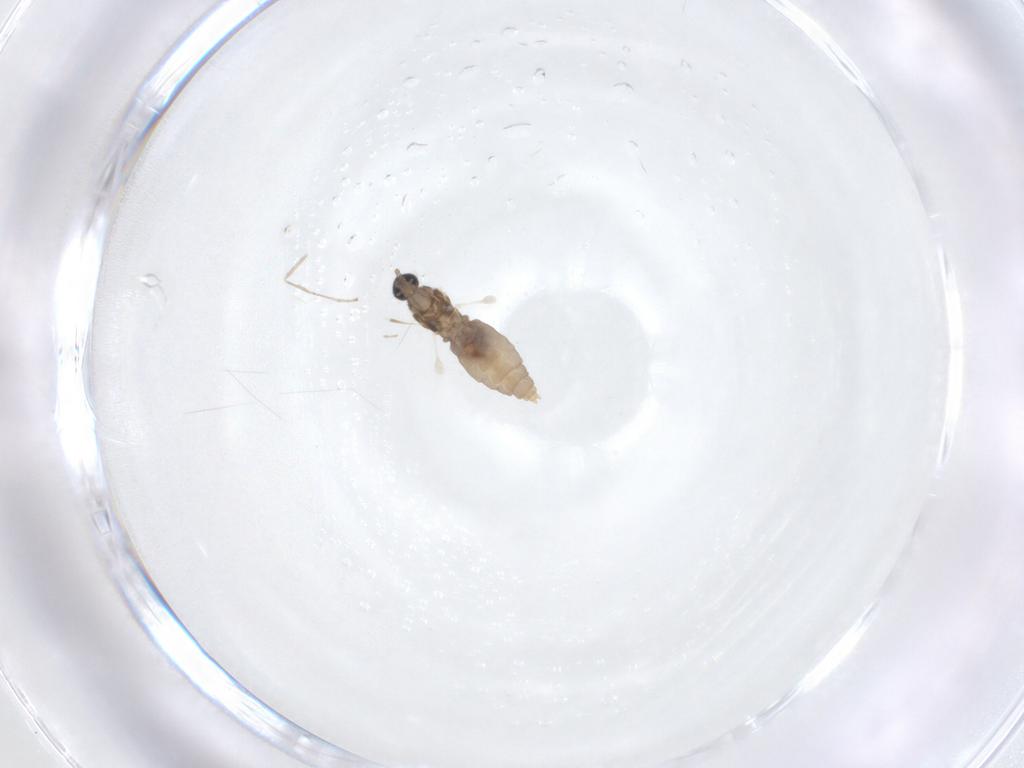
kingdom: Animalia
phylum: Arthropoda
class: Insecta
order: Diptera
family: Cecidomyiidae
